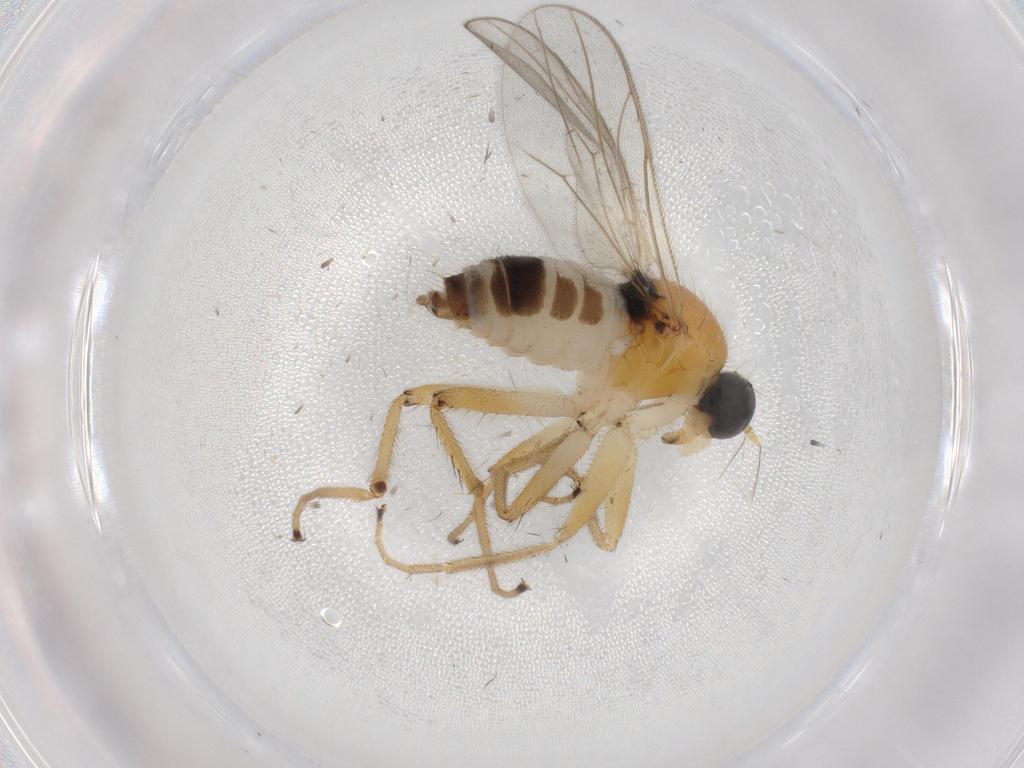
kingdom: Animalia
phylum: Arthropoda
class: Insecta
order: Diptera
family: Hybotidae
